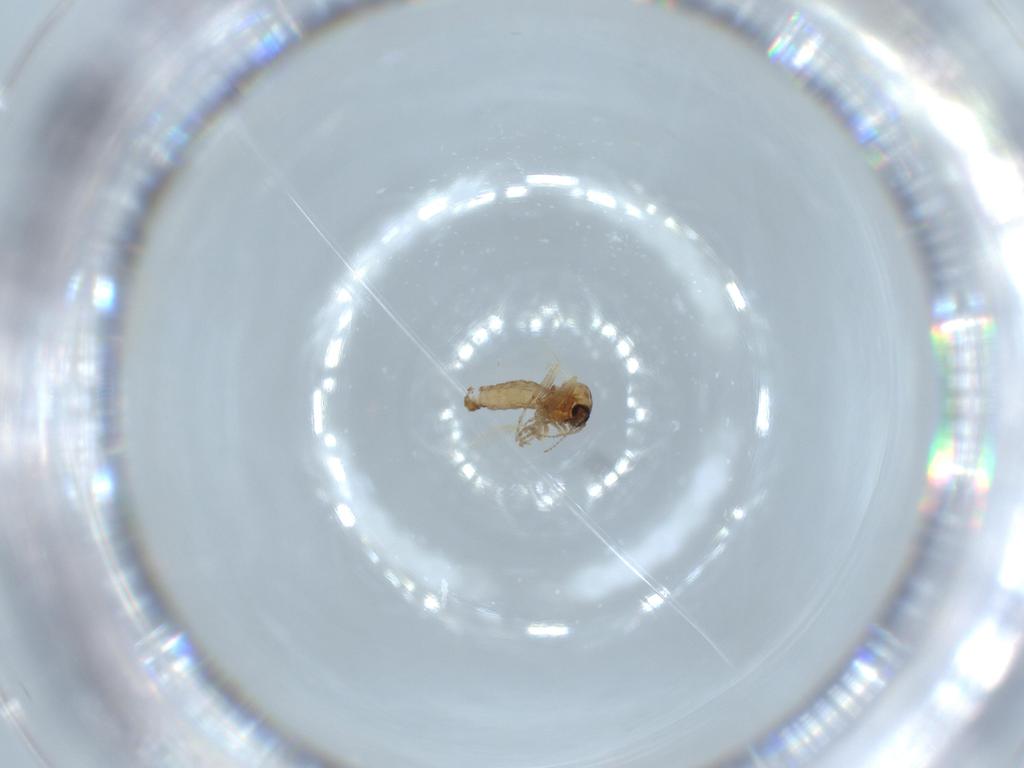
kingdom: Animalia
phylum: Arthropoda
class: Insecta
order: Diptera
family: Ceratopogonidae
